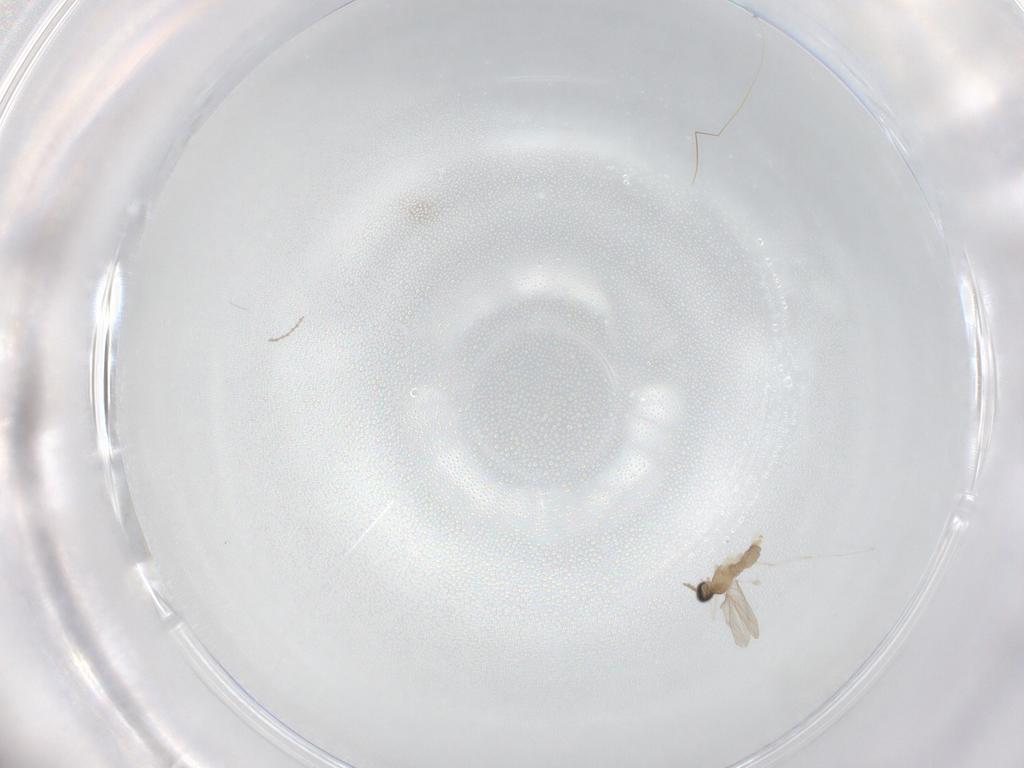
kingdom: Animalia
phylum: Arthropoda
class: Insecta
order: Diptera
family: Cecidomyiidae
